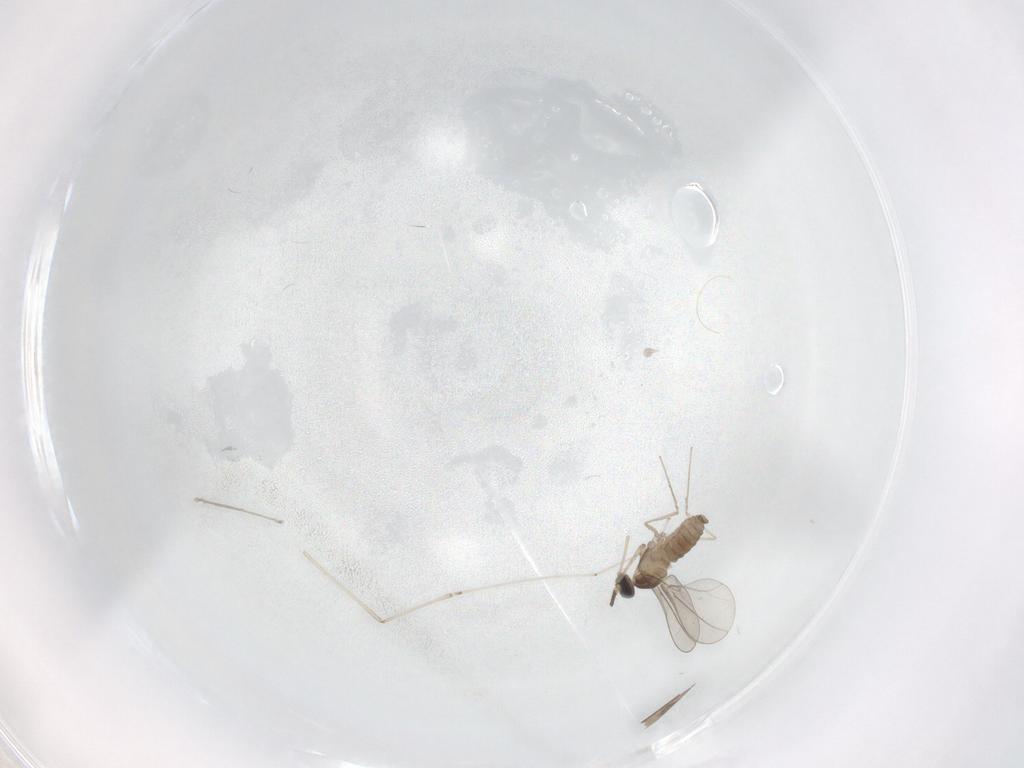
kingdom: Animalia
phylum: Arthropoda
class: Insecta
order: Diptera
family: Cecidomyiidae
